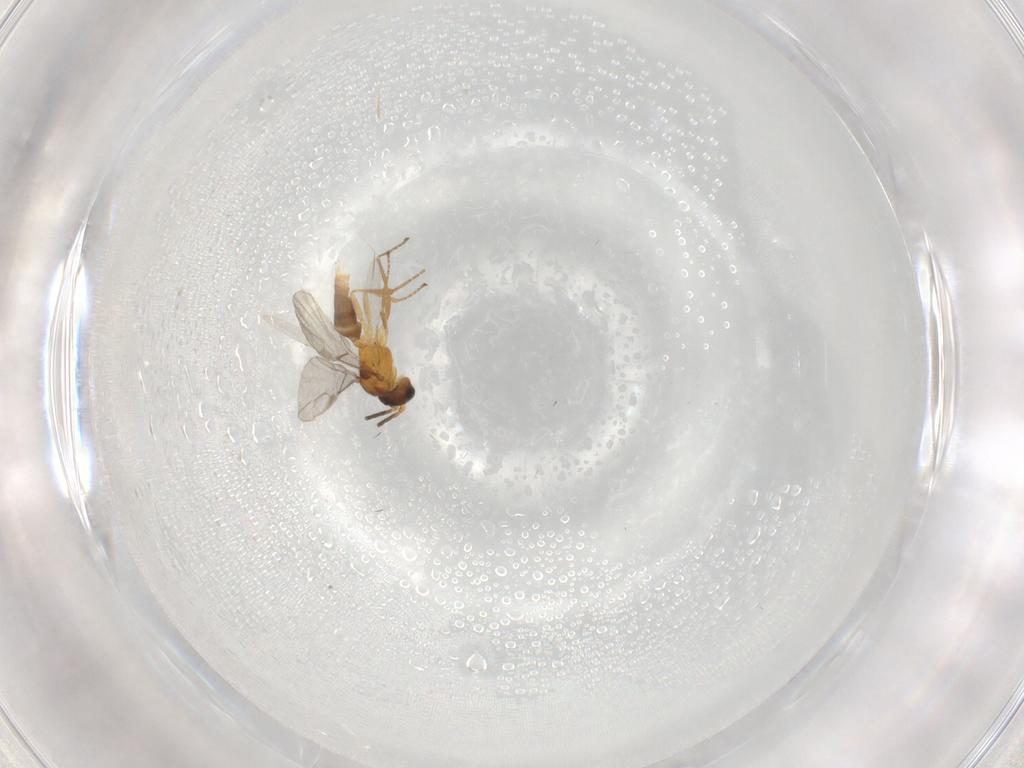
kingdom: Animalia
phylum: Arthropoda
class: Insecta
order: Hymenoptera
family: Braconidae
